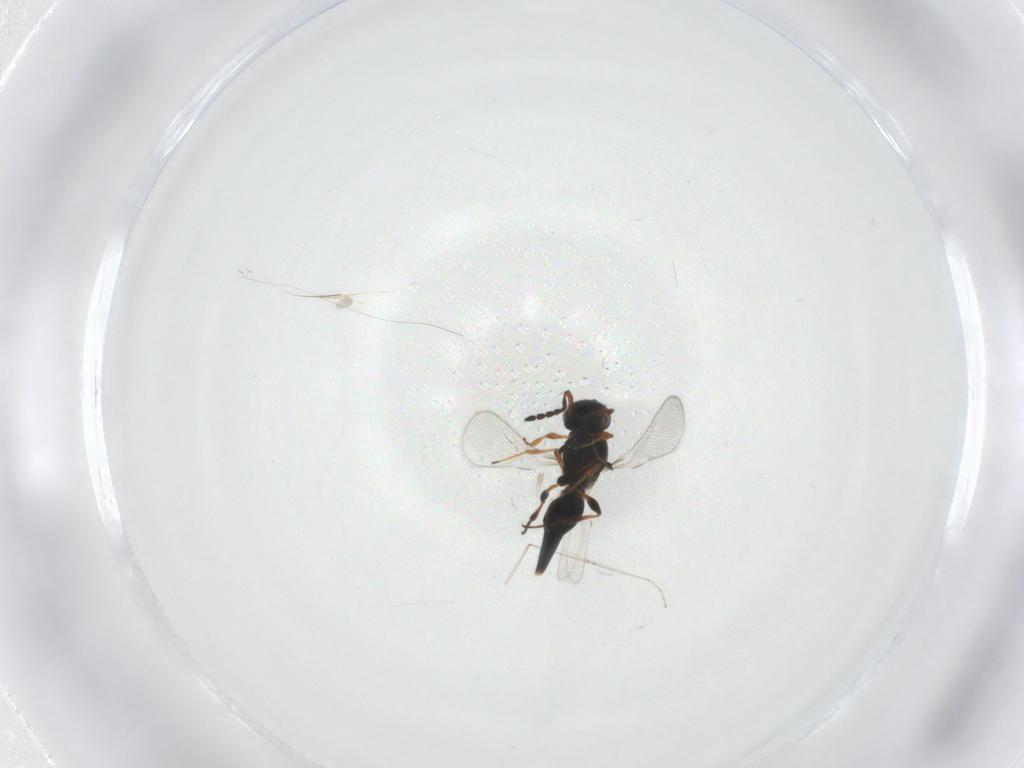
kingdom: Animalia
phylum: Arthropoda
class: Insecta
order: Hymenoptera
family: Platygastridae
